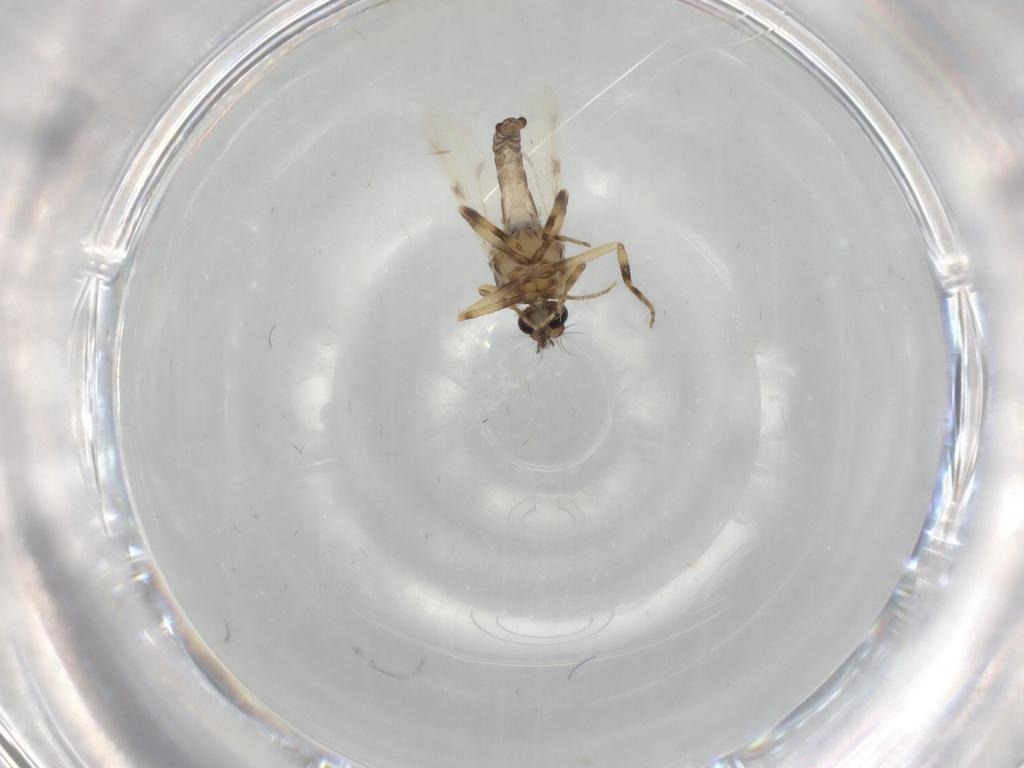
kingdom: Animalia
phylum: Arthropoda
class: Insecta
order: Diptera
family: Ceratopogonidae
